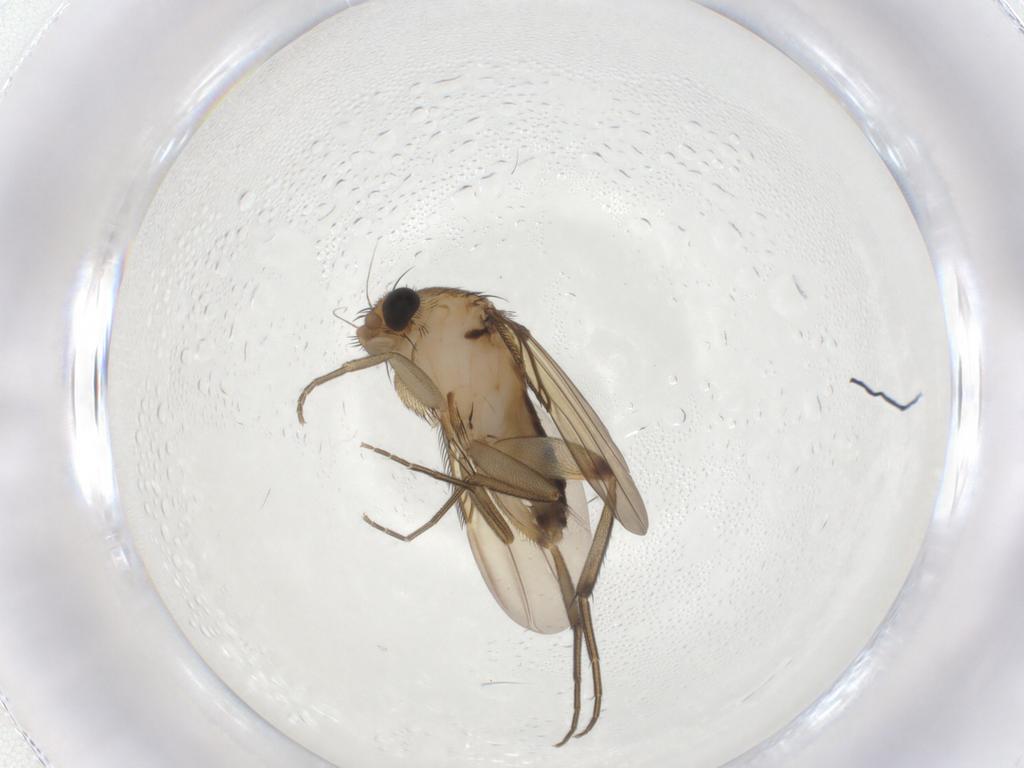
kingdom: Animalia
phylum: Arthropoda
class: Insecta
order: Diptera
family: Phoridae
